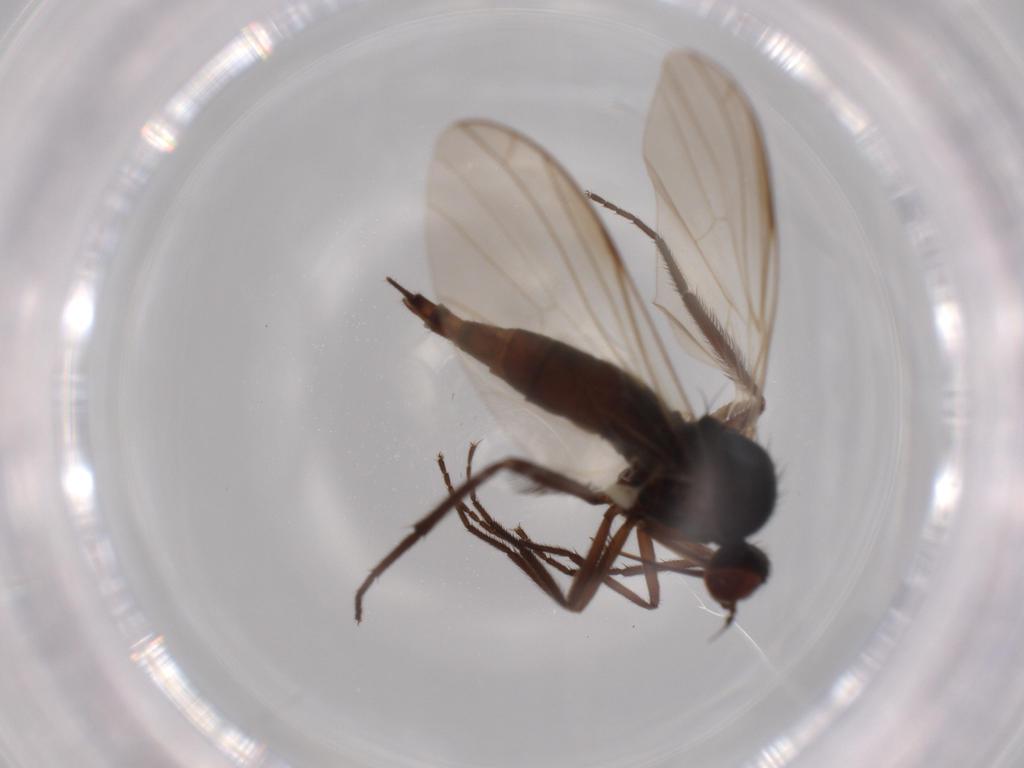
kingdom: Animalia
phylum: Arthropoda
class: Insecta
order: Diptera
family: Empididae
